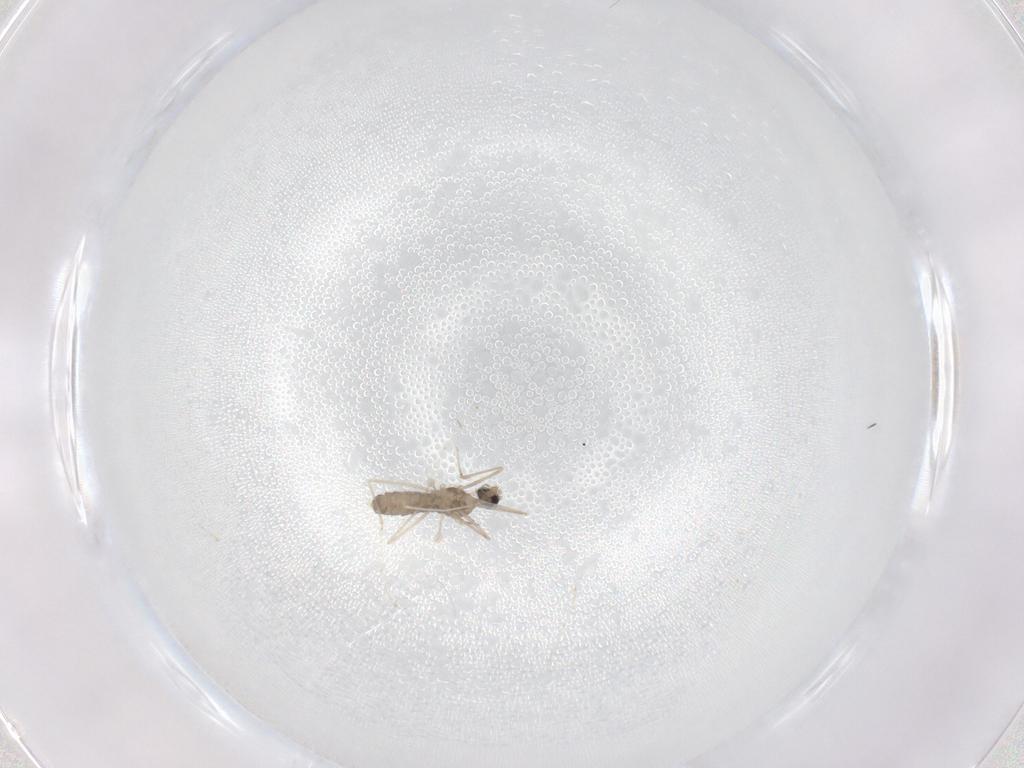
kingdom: Animalia
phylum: Arthropoda
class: Insecta
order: Diptera
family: Cecidomyiidae
